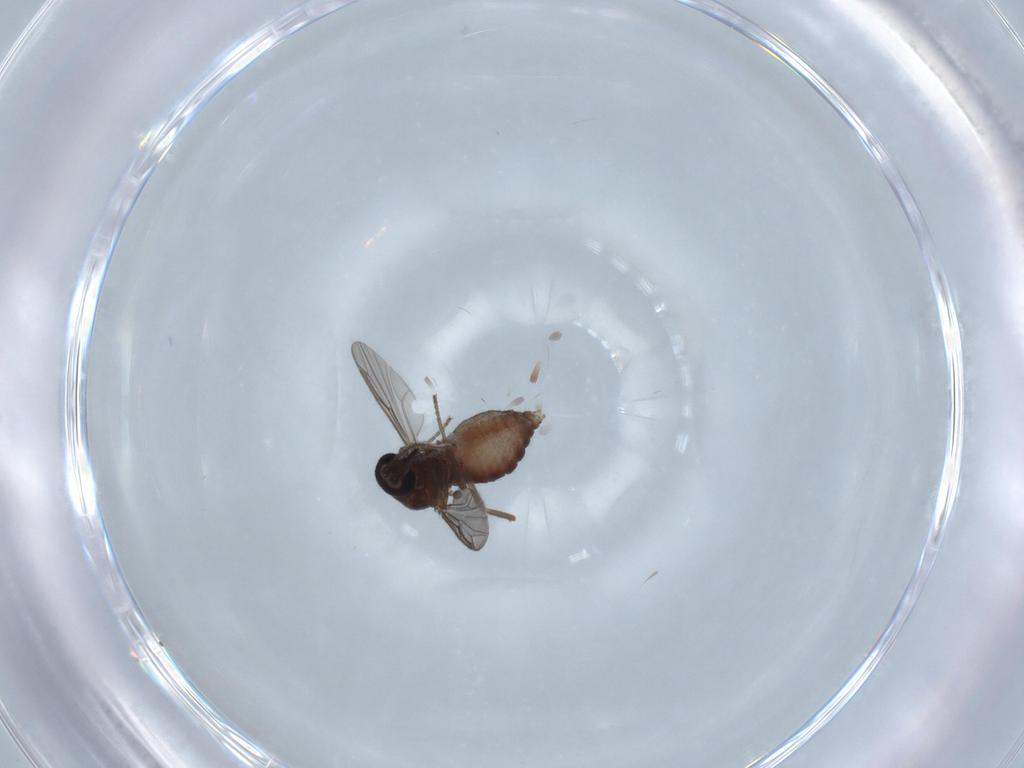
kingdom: Animalia
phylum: Arthropoda
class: Insecta
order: Diptera
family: Ceratopogonidae
